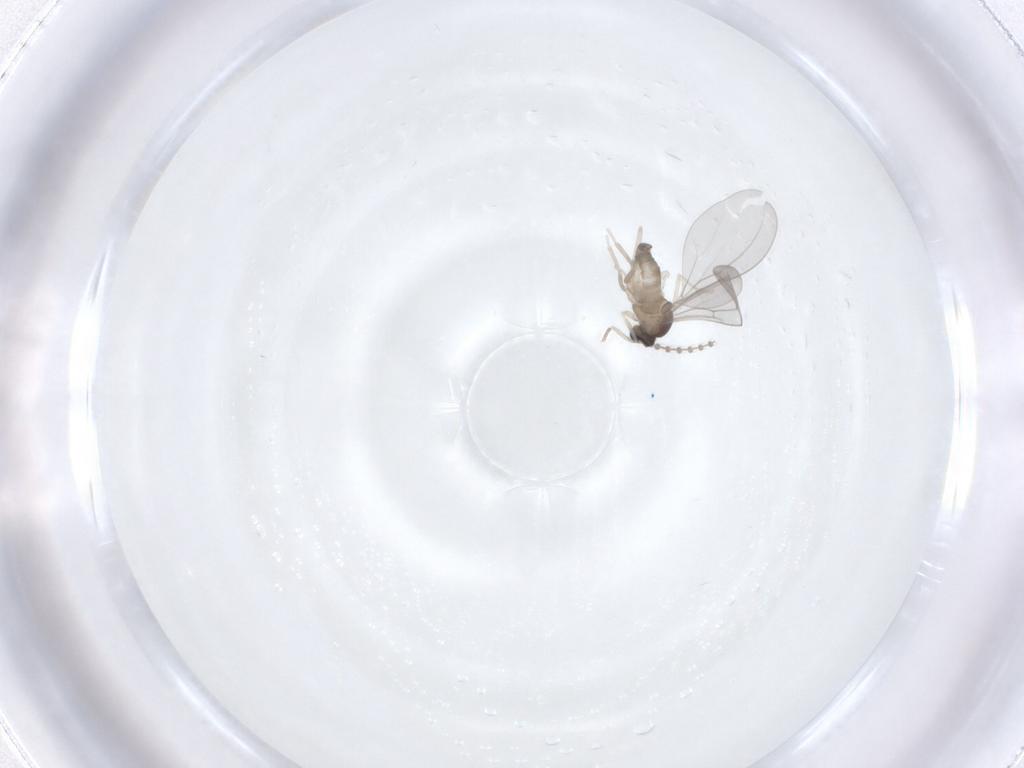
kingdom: Animalia
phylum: Arthropoda
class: Insecta
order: Diptera
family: Cecidomyiidae
